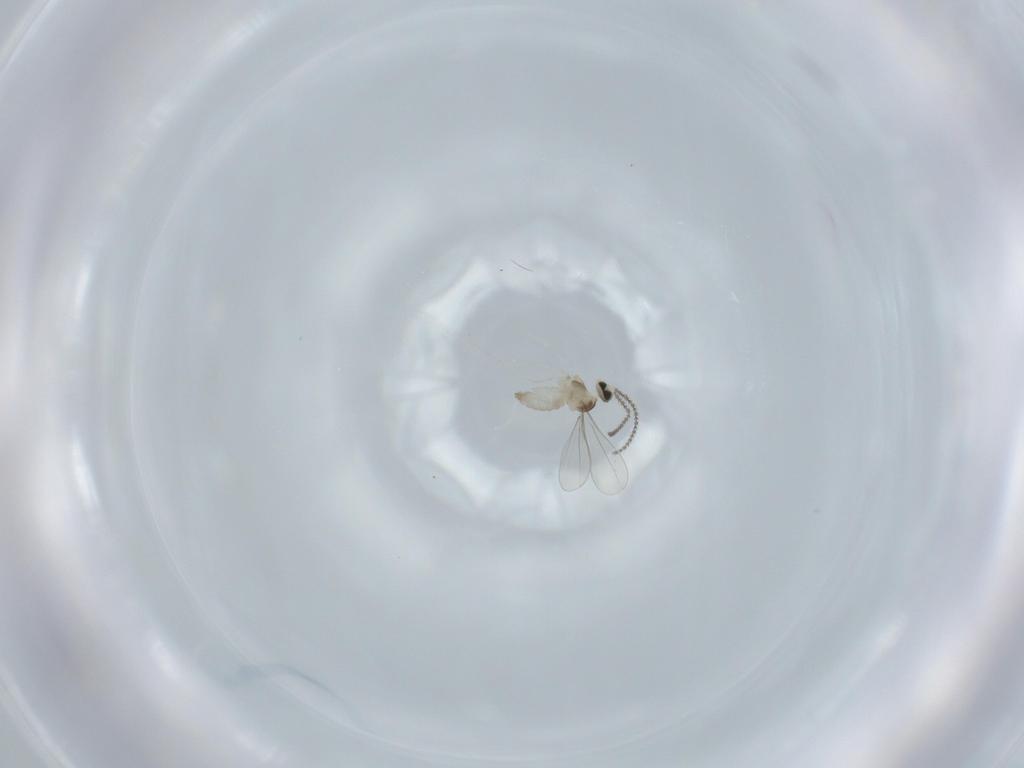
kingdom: Animalia
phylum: Arthropoda
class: Insecta
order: Diptera
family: Cecidomyiidae
